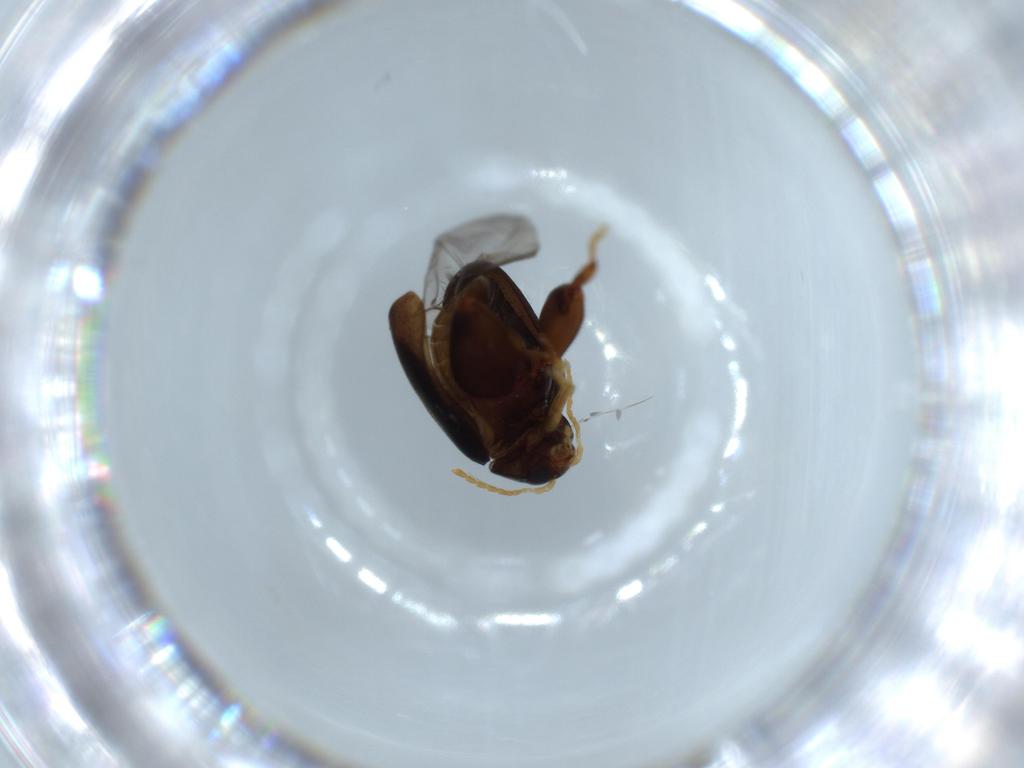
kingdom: Animalia
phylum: Arthropoda
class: Insecta
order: Coleoptera
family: Chrysomelidae
